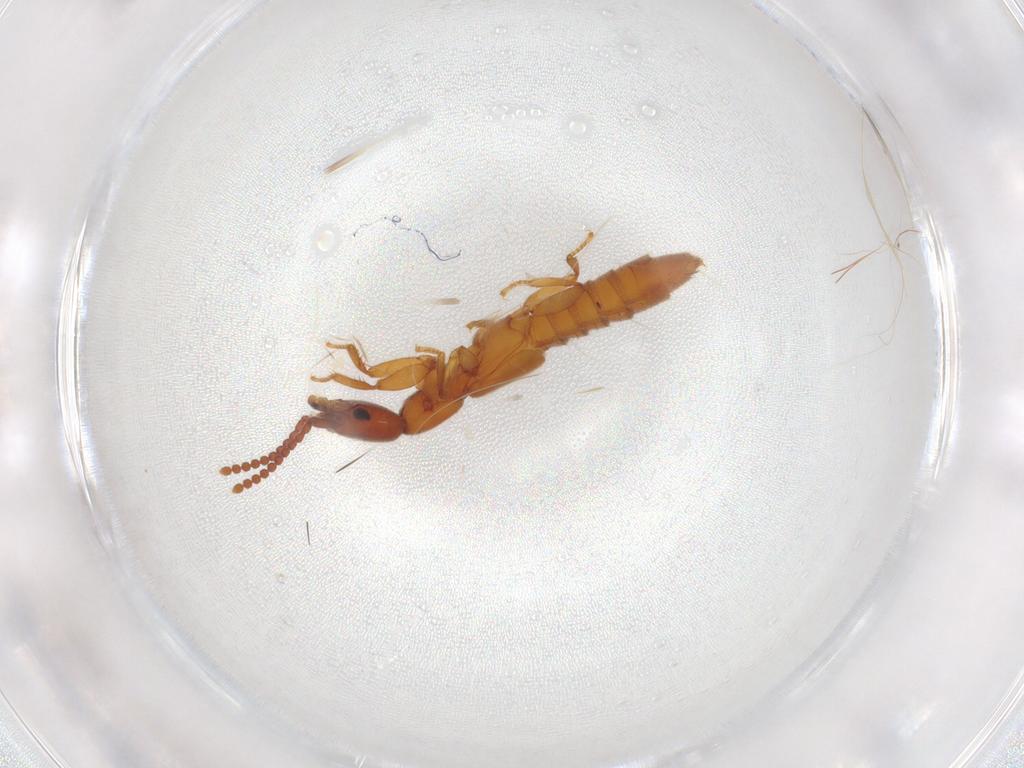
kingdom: Animalia
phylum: Arthropoda
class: Insecta
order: Coleoptera
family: Staphylinidae
